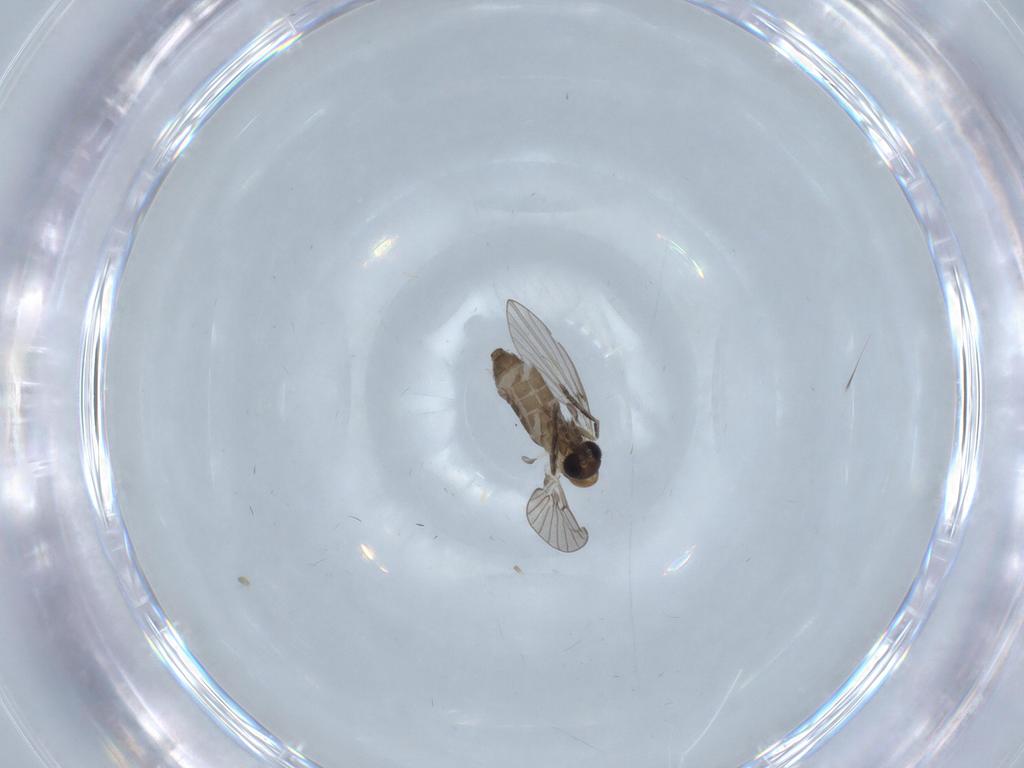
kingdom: Animalia
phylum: Arthropoda
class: Insecta
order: Diptera
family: Psychodidae
